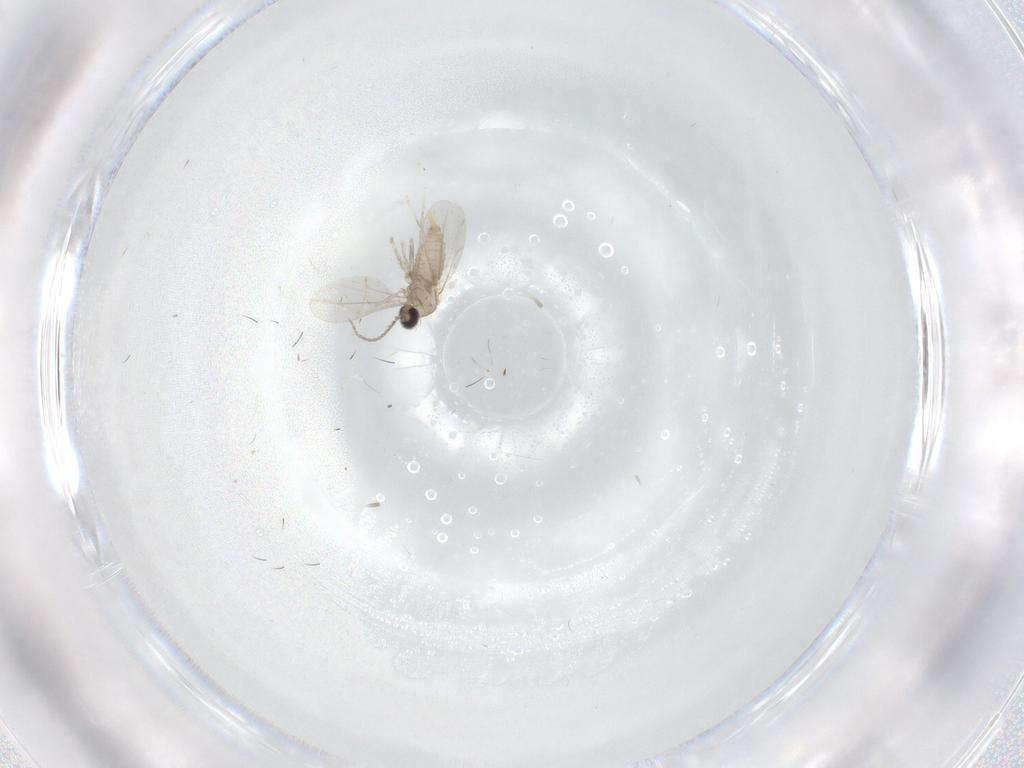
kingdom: Animalia
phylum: Arthropoda
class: Insecta
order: Diptera
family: Cecidomyiidae
